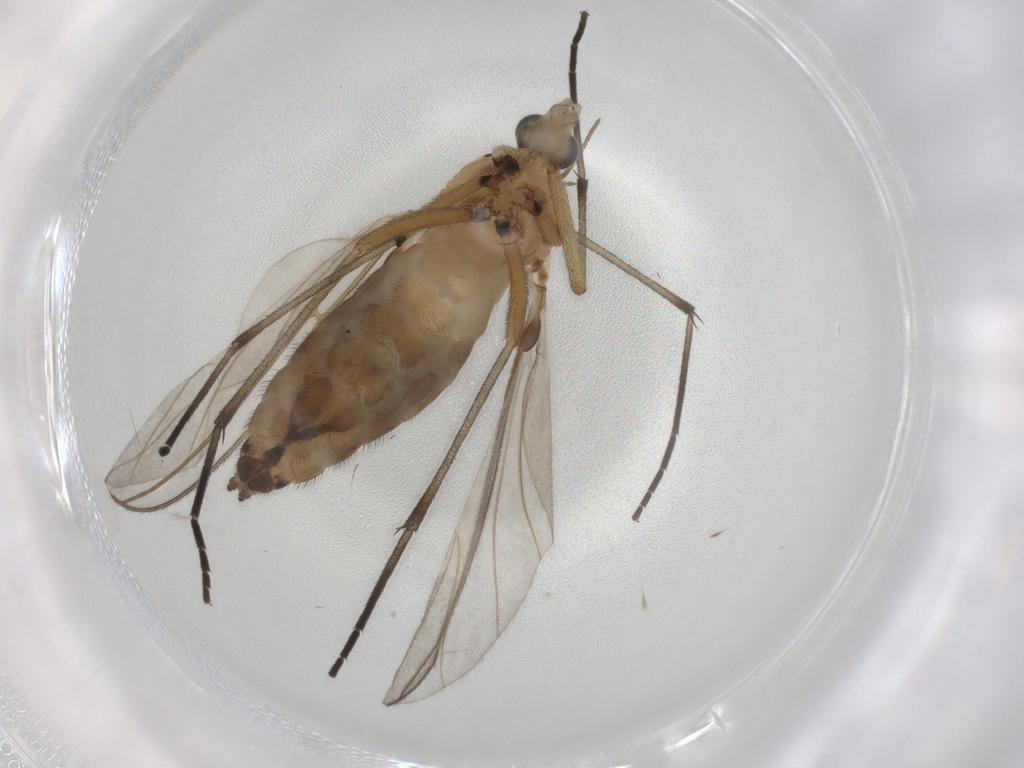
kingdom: Animalia
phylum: Arthropoda
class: Insecta
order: Diptera
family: Sciaridae
